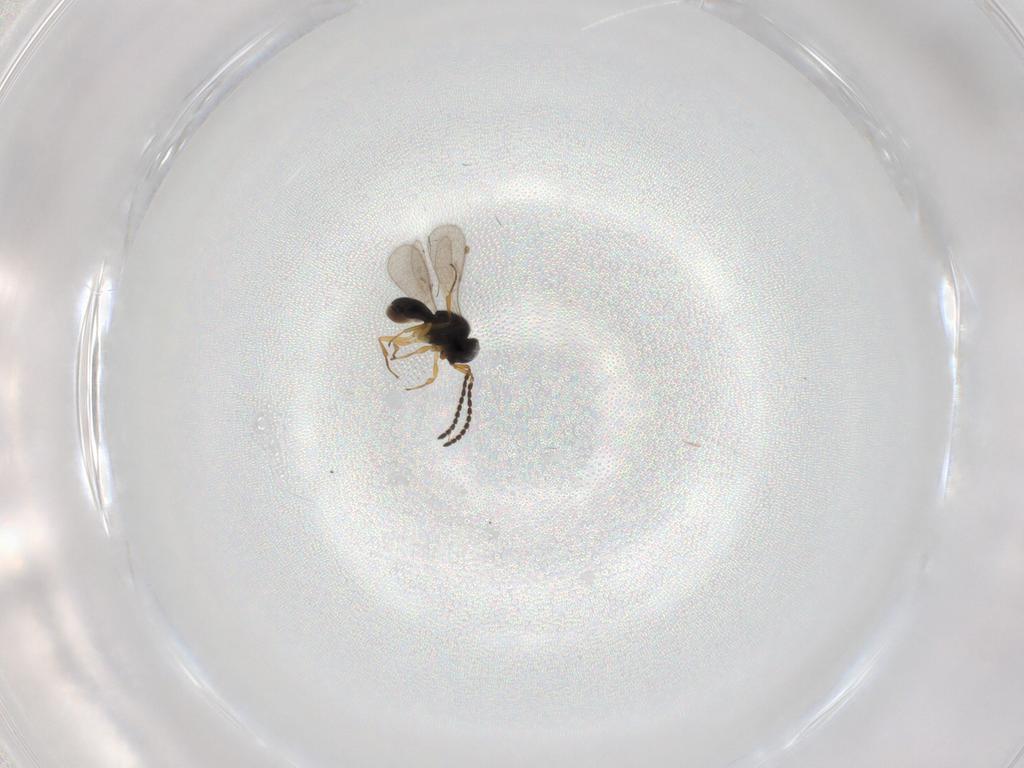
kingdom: Animalia
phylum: Arthropoda
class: Insecta
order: Hymenoptera
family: Scelionidae
